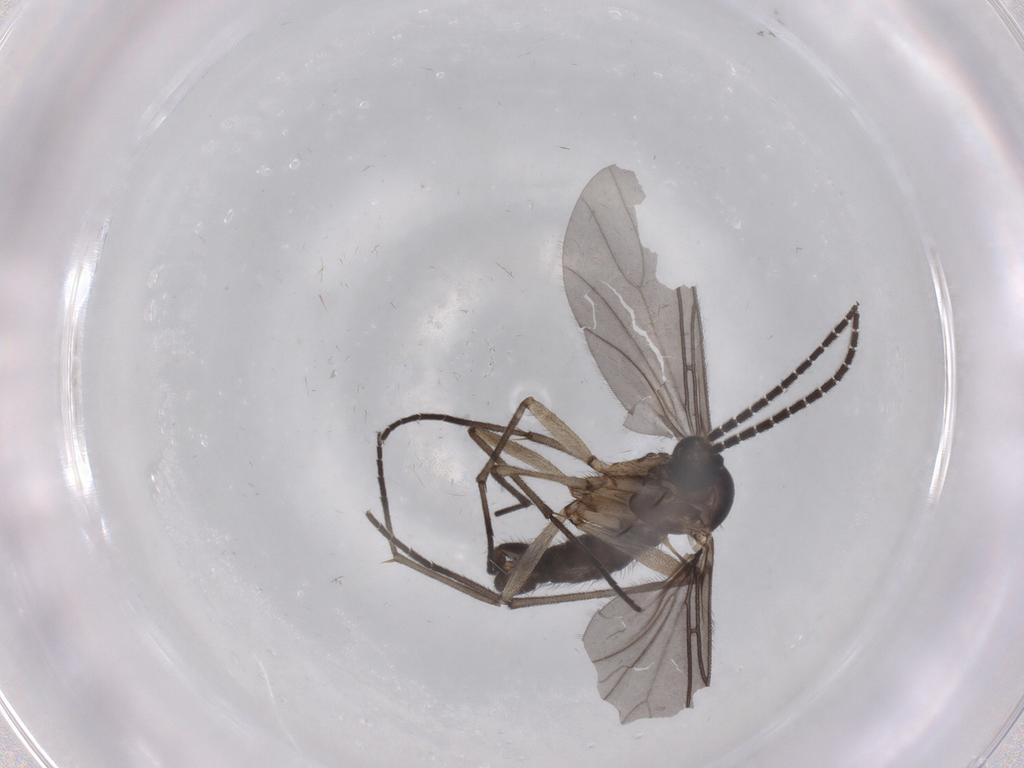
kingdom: Animalia
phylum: Arthropoda
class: Insecta
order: Diptera
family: Sciaridae
